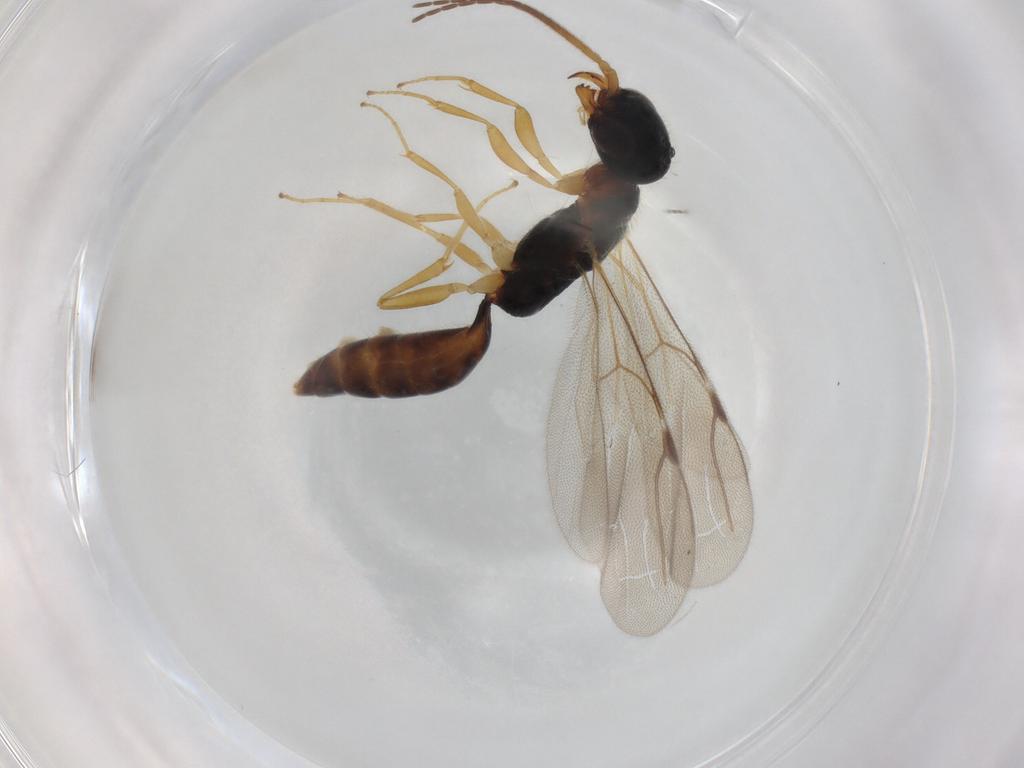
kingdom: Animalia
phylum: Arthropoda
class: Insecta
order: Hymenoptera
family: Bethylidae
